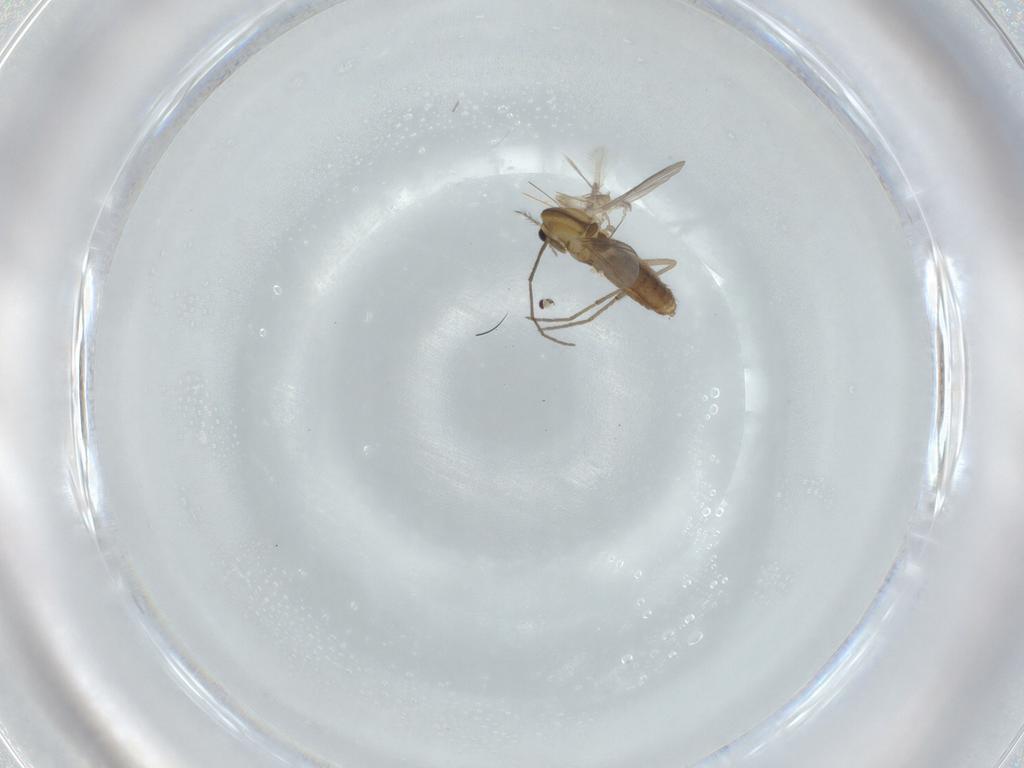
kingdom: Animalia
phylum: Arthropoda
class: Insecta
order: Diptera
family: Chironomidae
